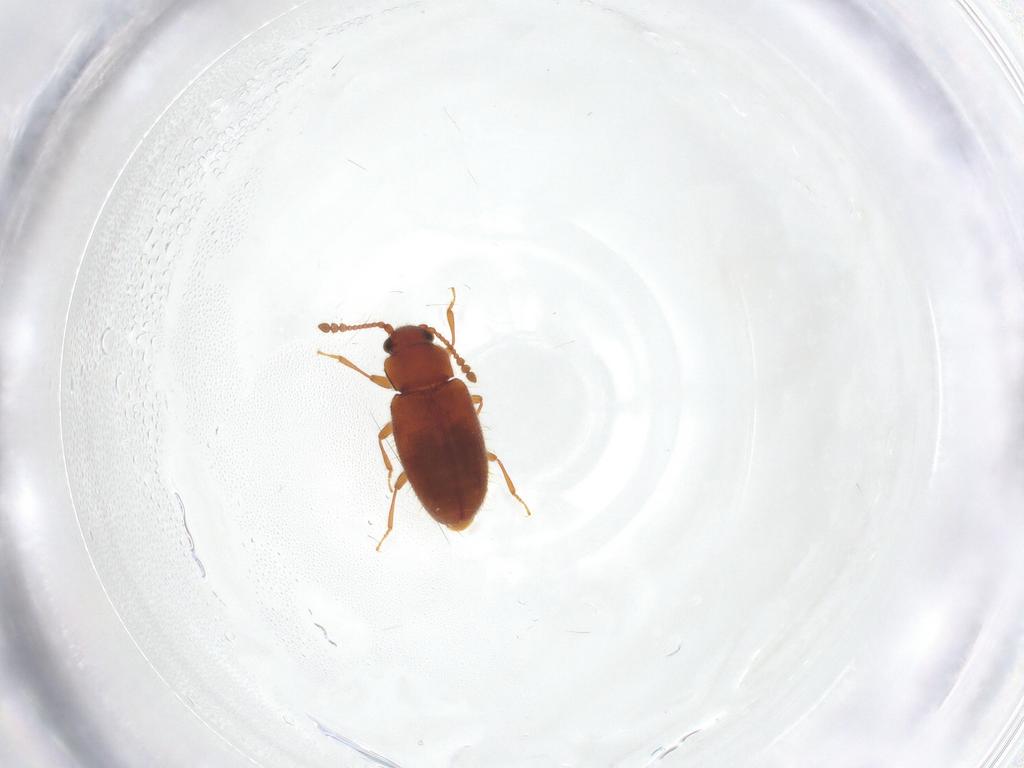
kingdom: Animalia
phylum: Arthropoda
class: Insecta
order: Coleoptera
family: Cryptophagidae
